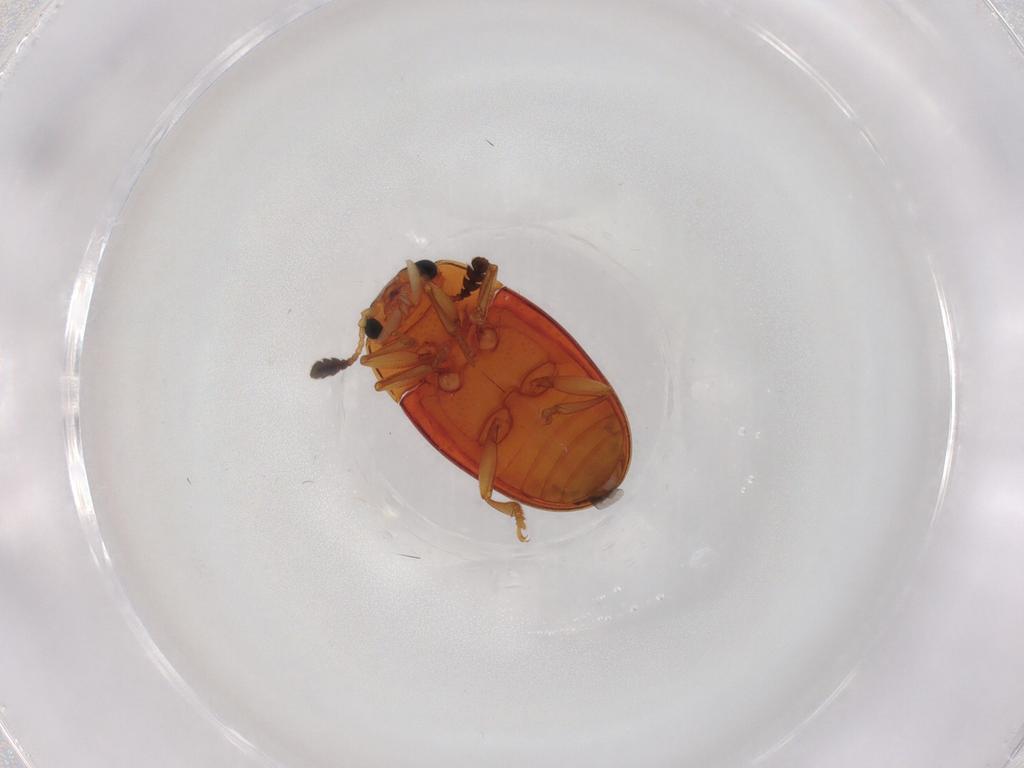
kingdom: Animalia
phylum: Arthropoda
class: Insecta
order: Coleoptera
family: Erotylidae
